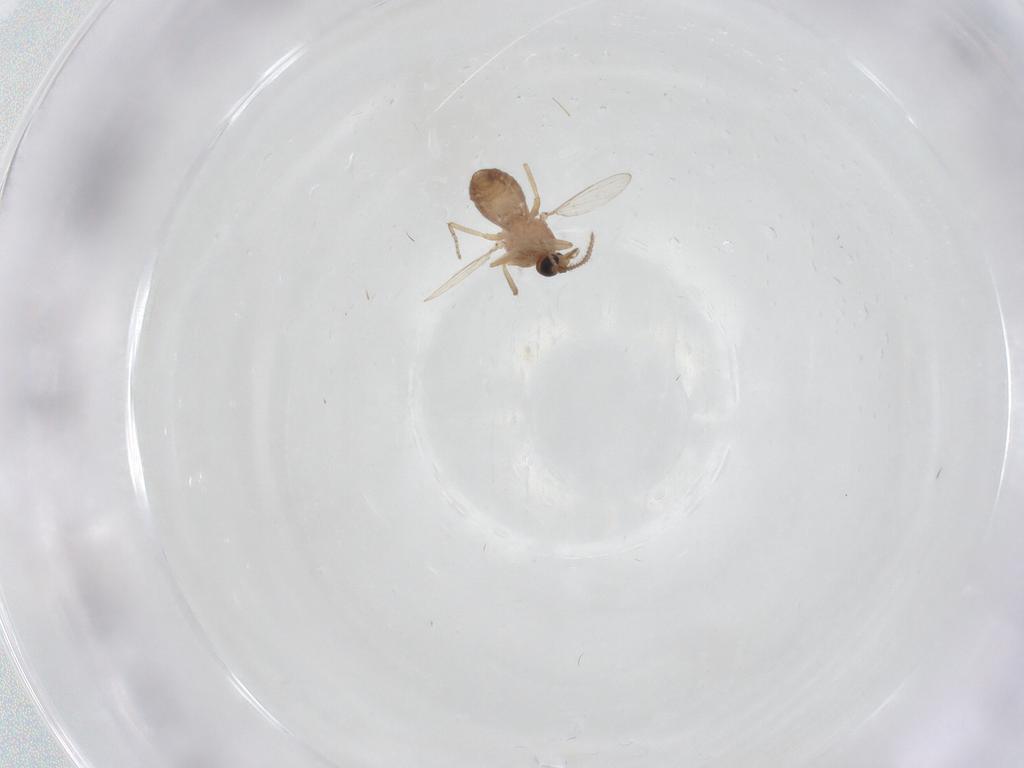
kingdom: Animalia
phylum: Arthropoda
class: Insecta
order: Diptera
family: Ceratopogonidae
